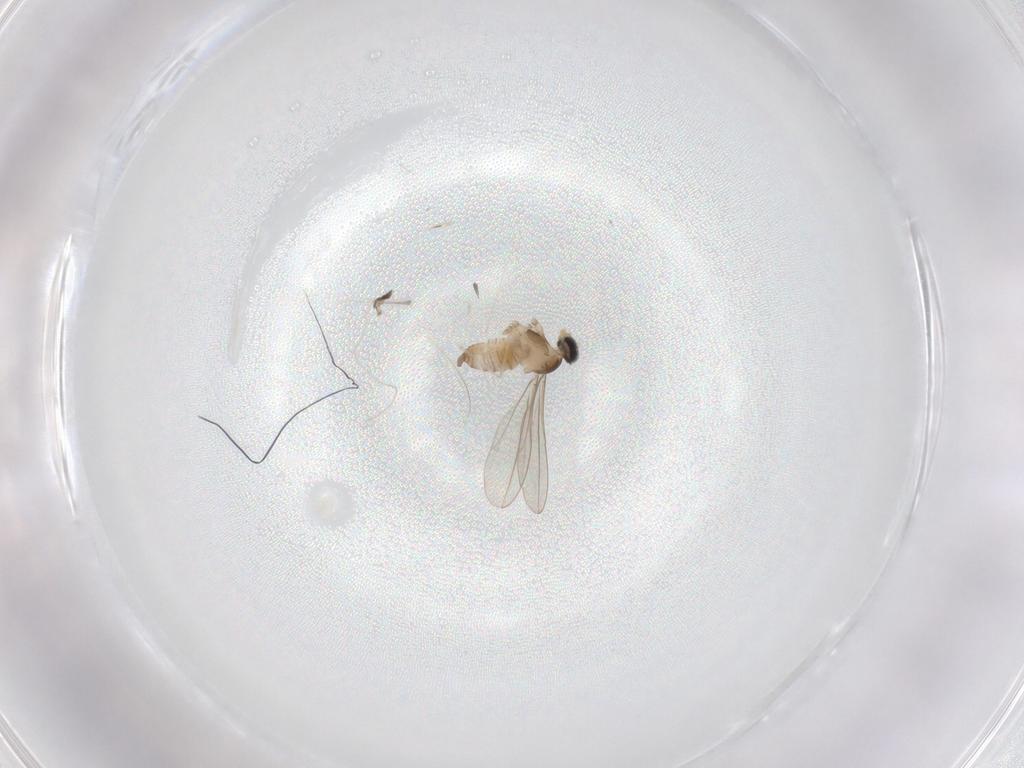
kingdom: Animalia
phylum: Arthropoda
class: Insecta
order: Diptera
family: Cecidomyiidae
